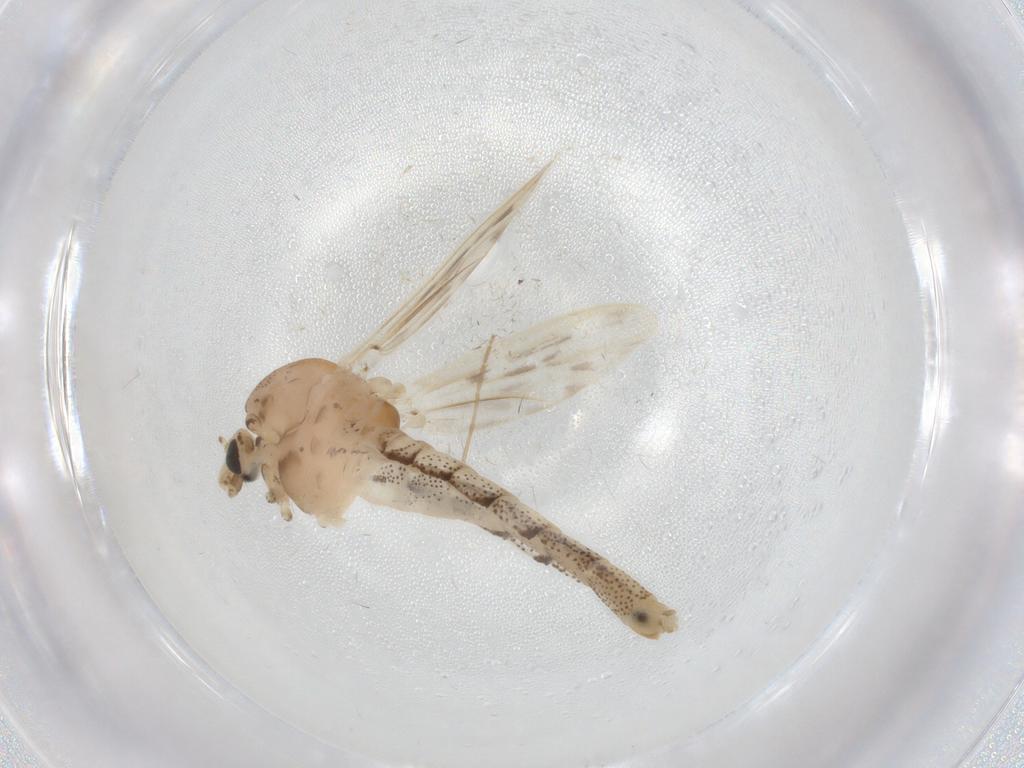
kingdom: Animalia
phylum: Arthropoda
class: Insecta
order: Diptera
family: Chaoboridae
